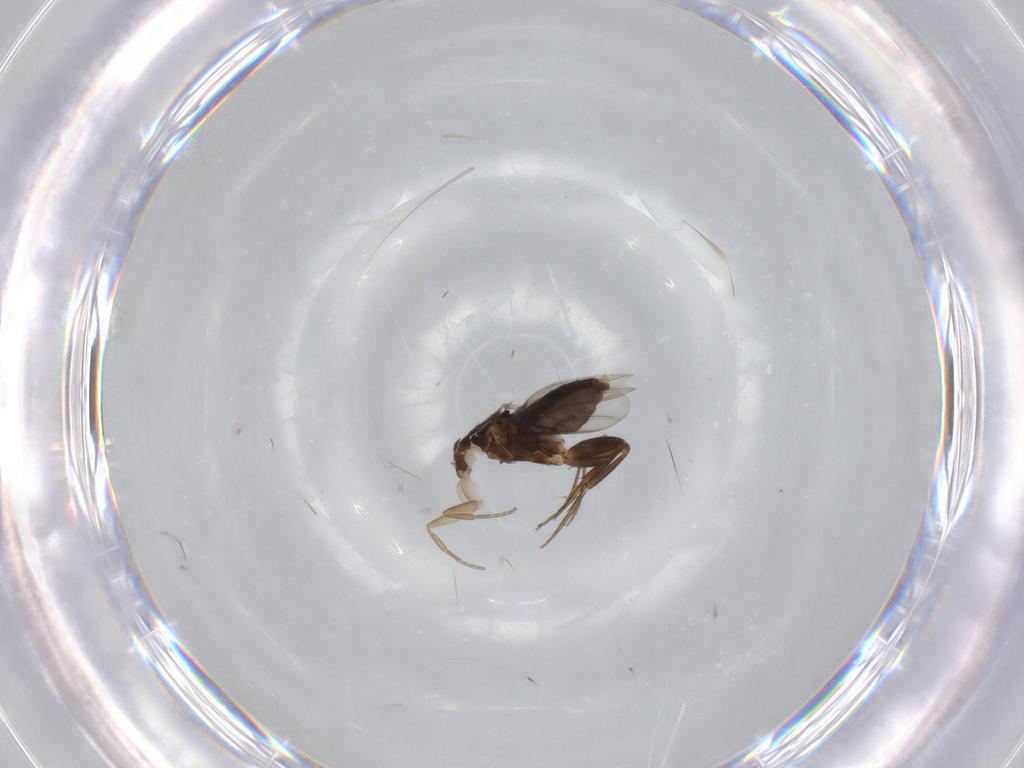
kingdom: Animalia
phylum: Arthropoda
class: Insecta
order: Diptera
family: Phoridae
